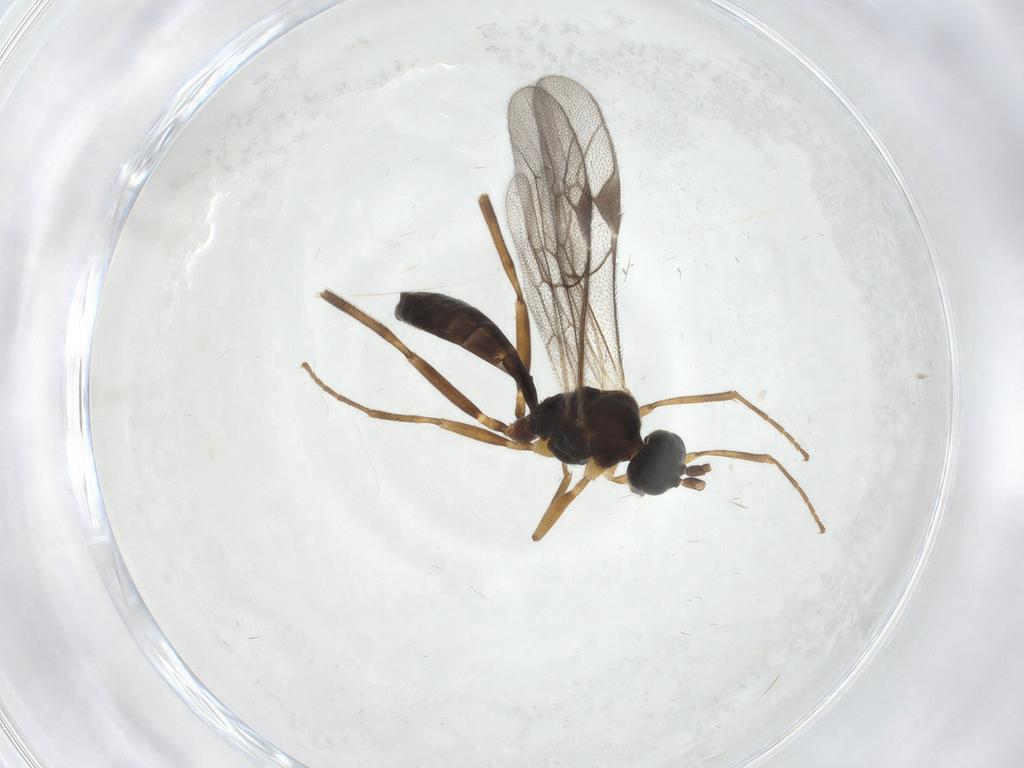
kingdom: Animalia
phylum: Arthropoda
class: Insecta
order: Hymenoptera
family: Ichneumonidae
